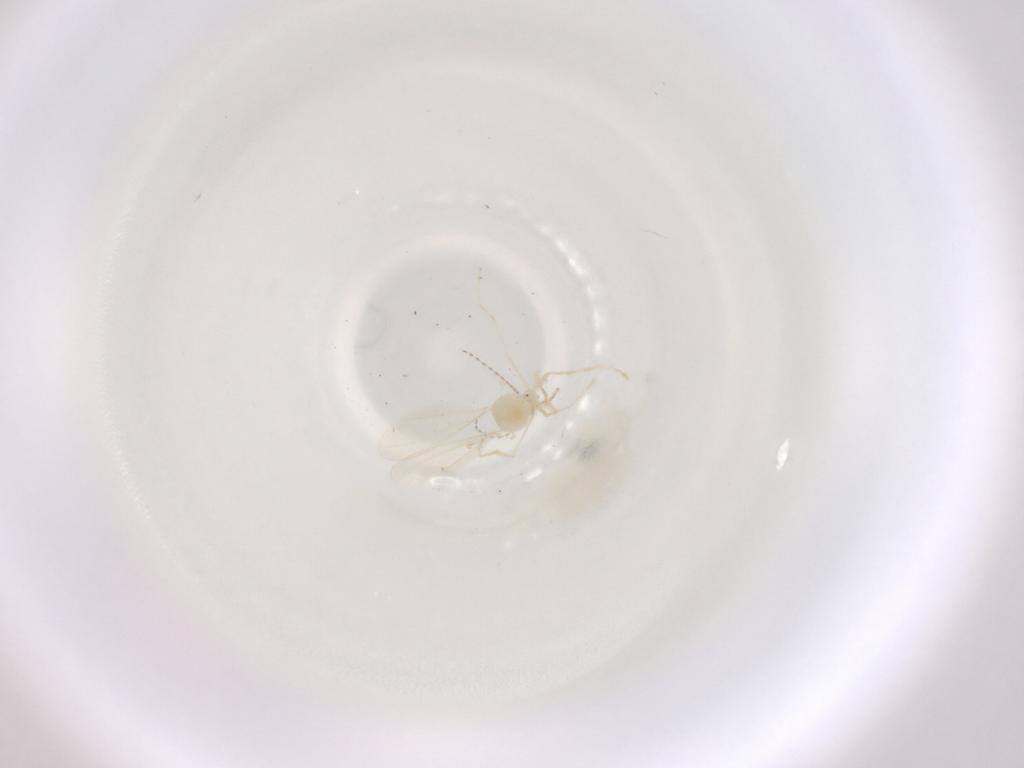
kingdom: Animalia
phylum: Arthropoda
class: Insecta
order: Diptera
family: Cecidomyiidae
